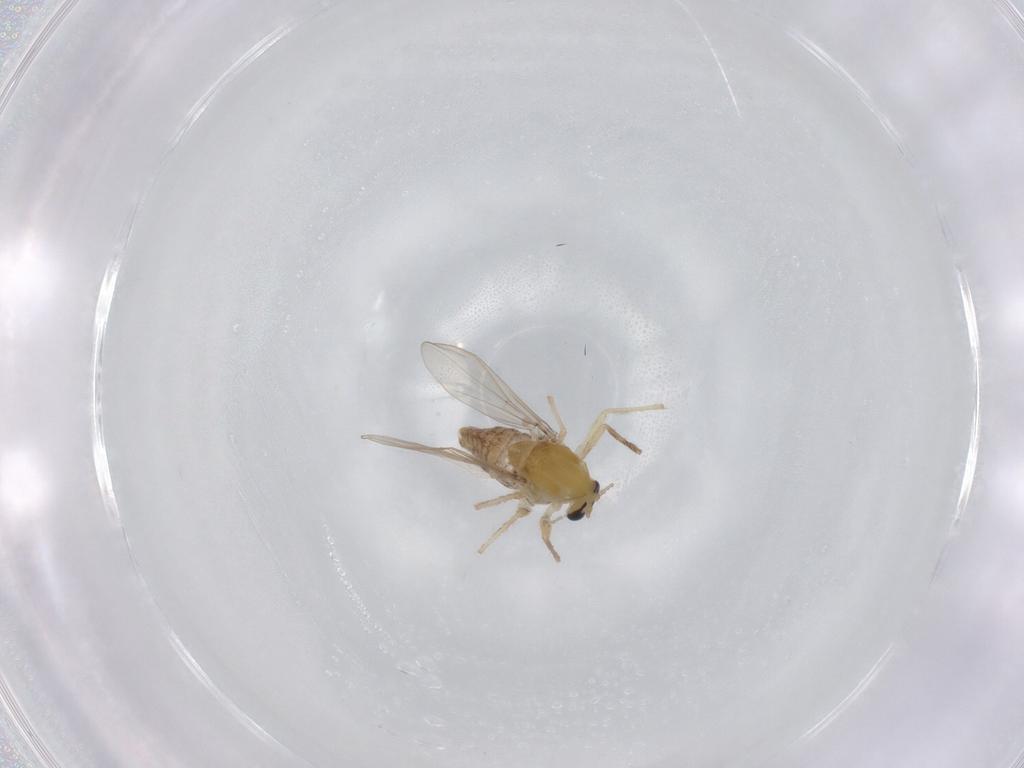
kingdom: Animalia
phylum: Arthropoda
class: Insecta
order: Diptera
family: Chironomidae
